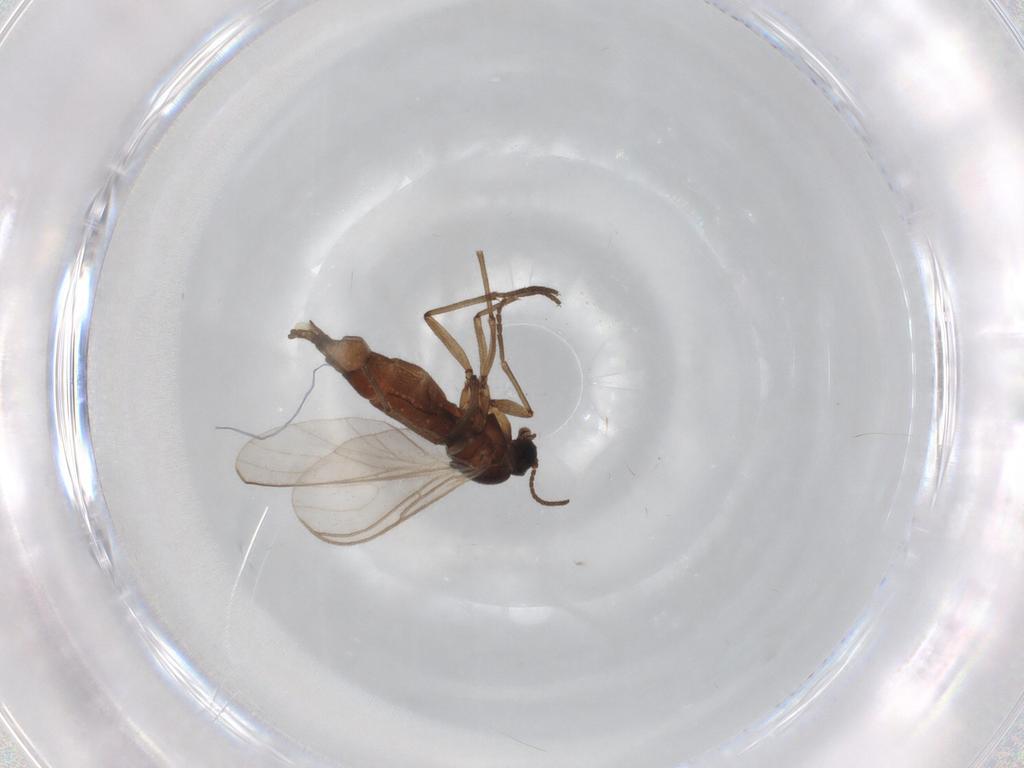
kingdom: Animalia
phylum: Arthropoda
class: Insecta
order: Diptera
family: Sciaridae
